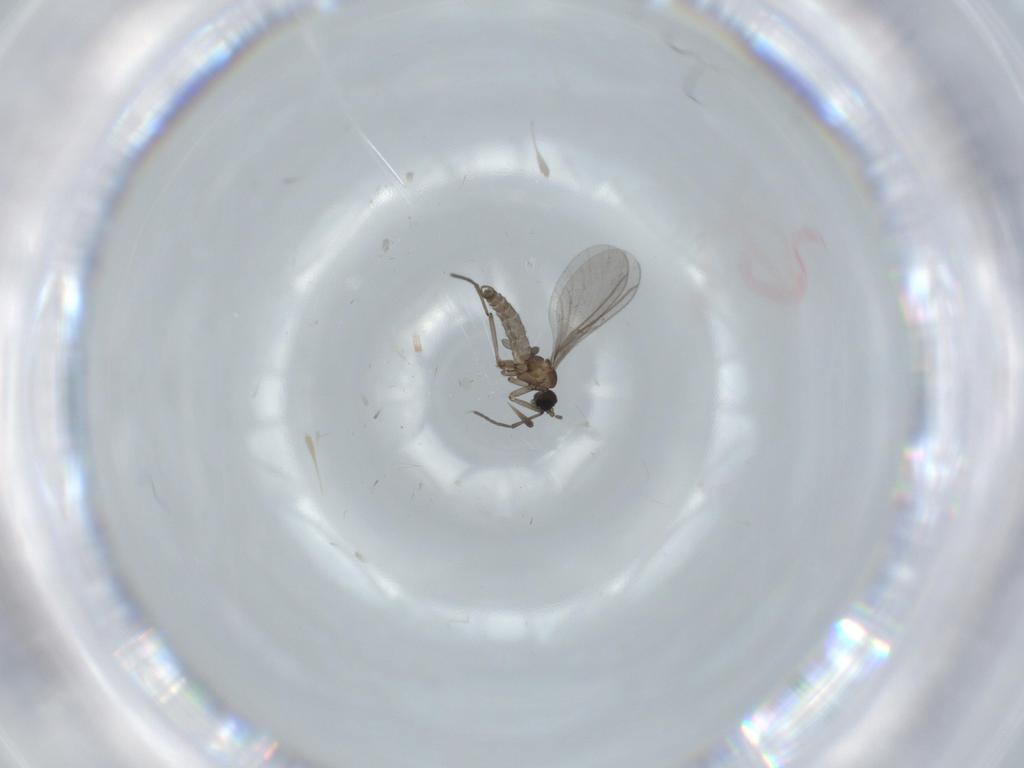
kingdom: Animalia
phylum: Arthropoda
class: Insecta
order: Diptera
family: Sciaridae
